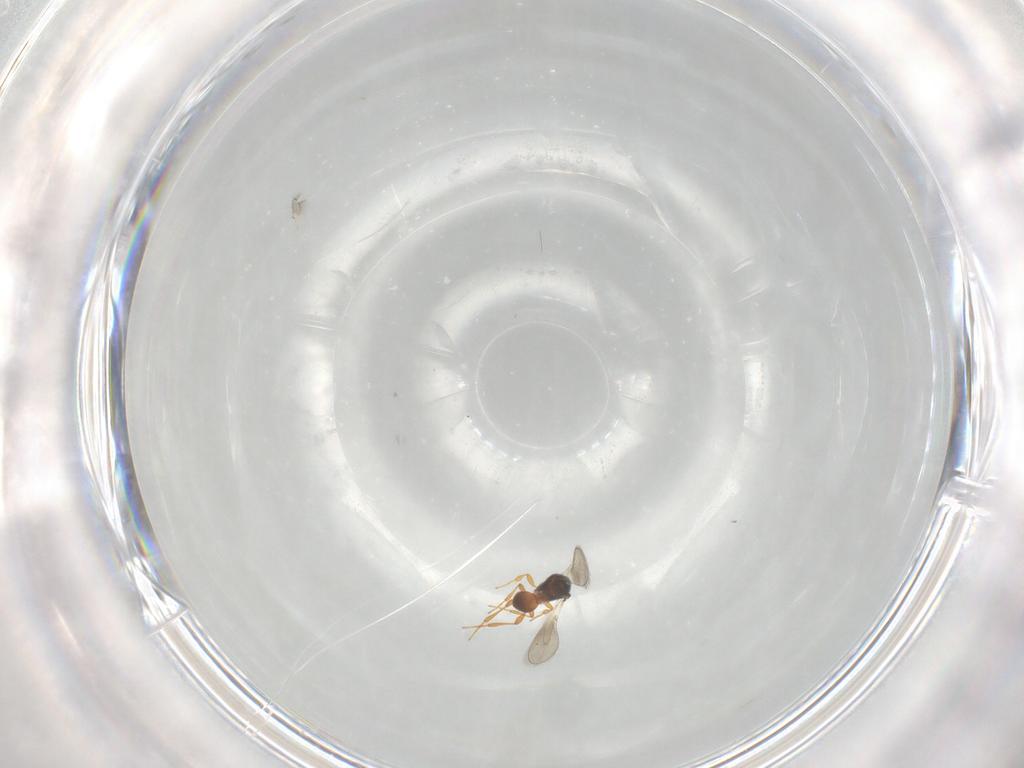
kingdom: Animalia
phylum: Arthropoda
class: Insecta
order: Hymenoptera
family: Platygastridae
